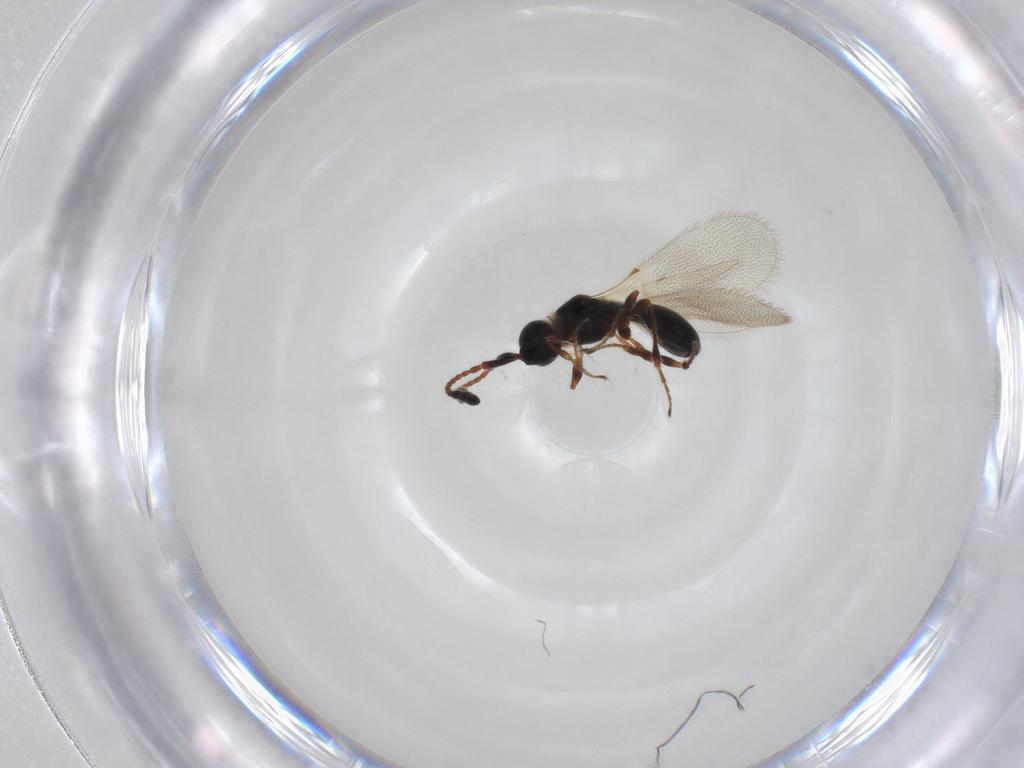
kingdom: Animalia
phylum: Arthropoda
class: Insecta
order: Hymenoptera
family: Diapriidae
